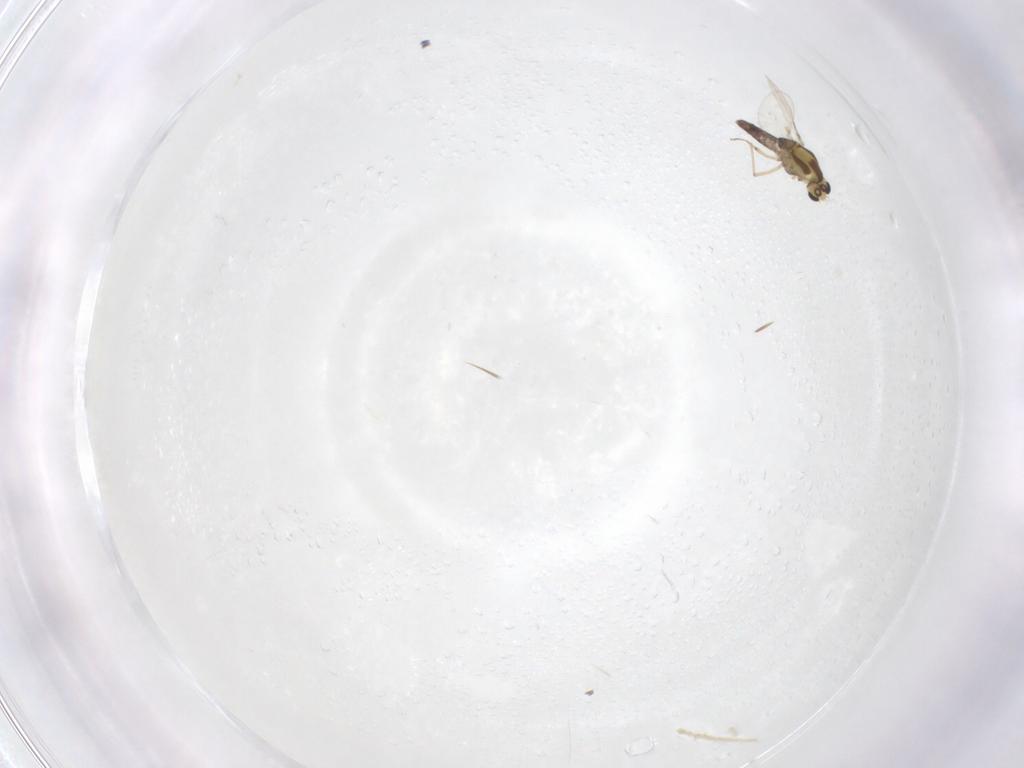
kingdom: Animalia
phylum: Arthropoda
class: Insecta
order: Diptera
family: Chironomidae
